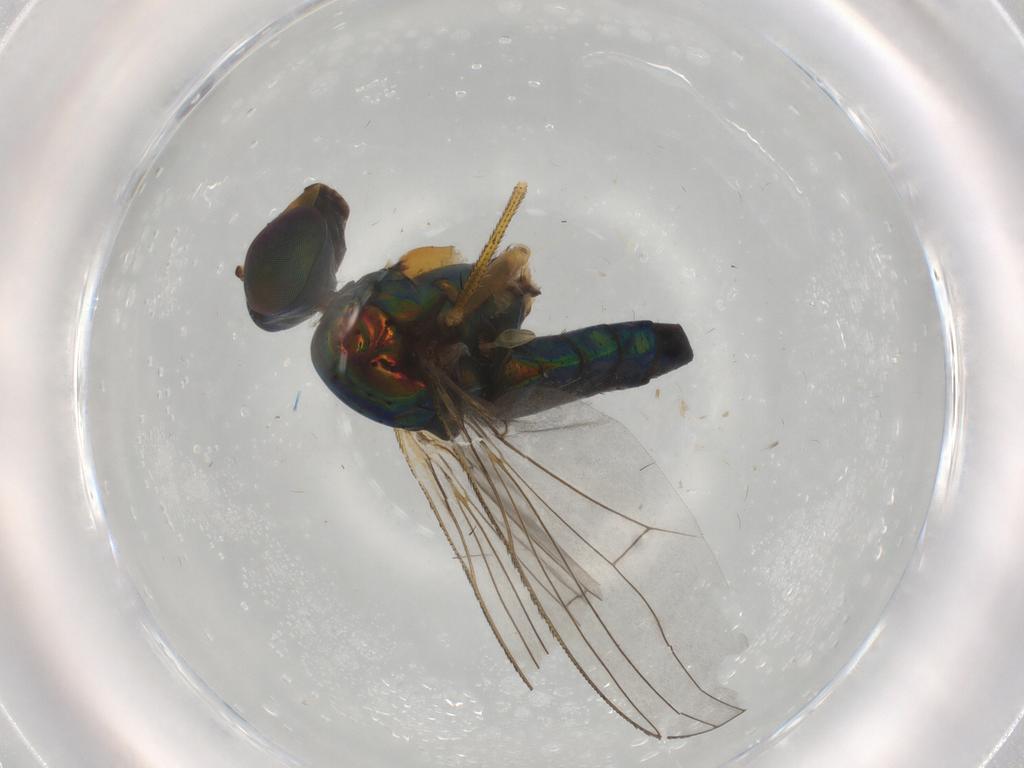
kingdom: Animalia
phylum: Arthropoda
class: Insecta
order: Diptera
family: Dolichopodidae
